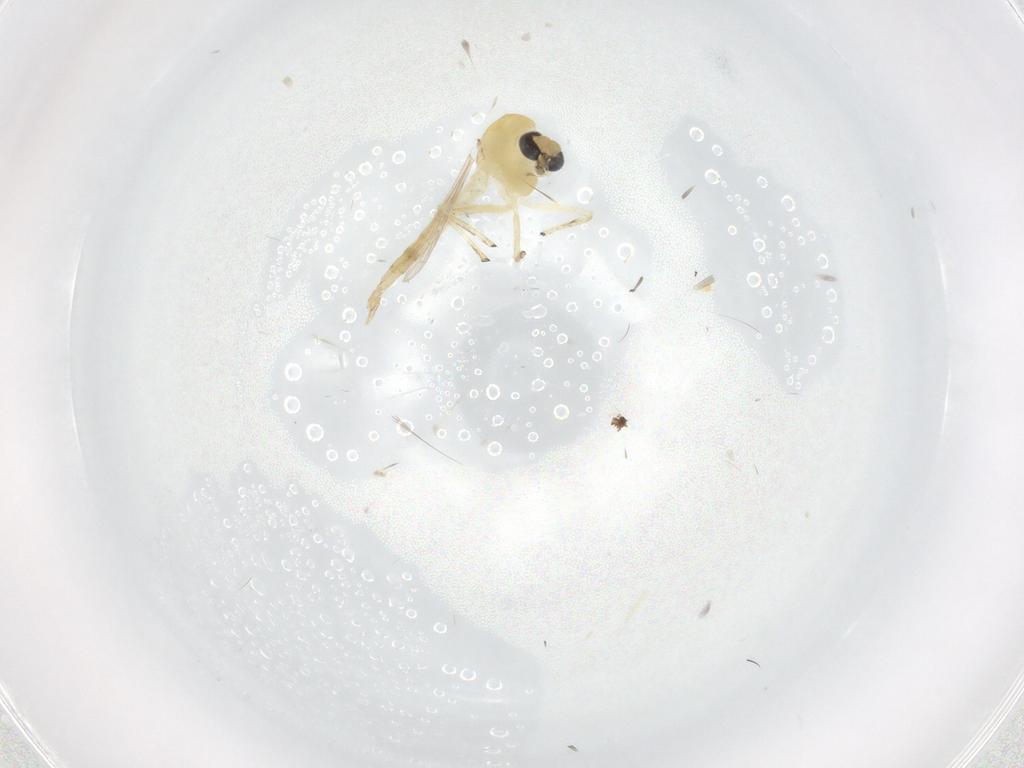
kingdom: Animalia
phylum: Arthropoda
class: Insecta
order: Diptera
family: Chironomidae
